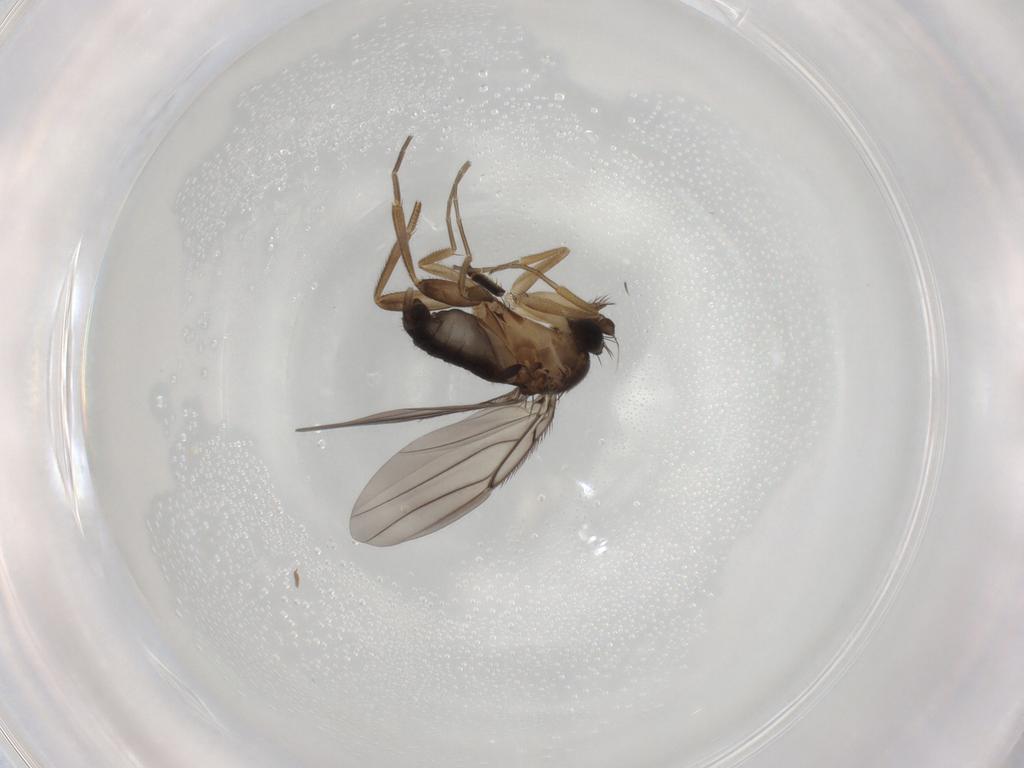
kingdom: Animalia
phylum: Arthropoda
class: Insecta
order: Diptera
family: Phoridae
